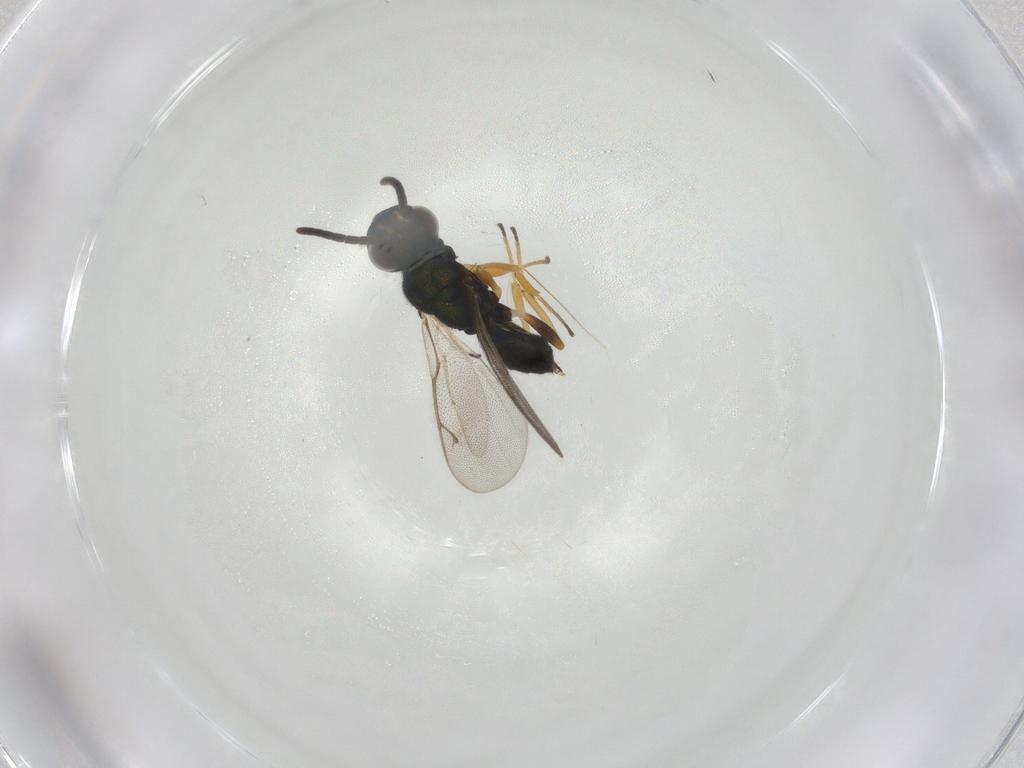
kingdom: Animalia
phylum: Arthropoda
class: Insecta
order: Hymenoptera
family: Eupelmidae
